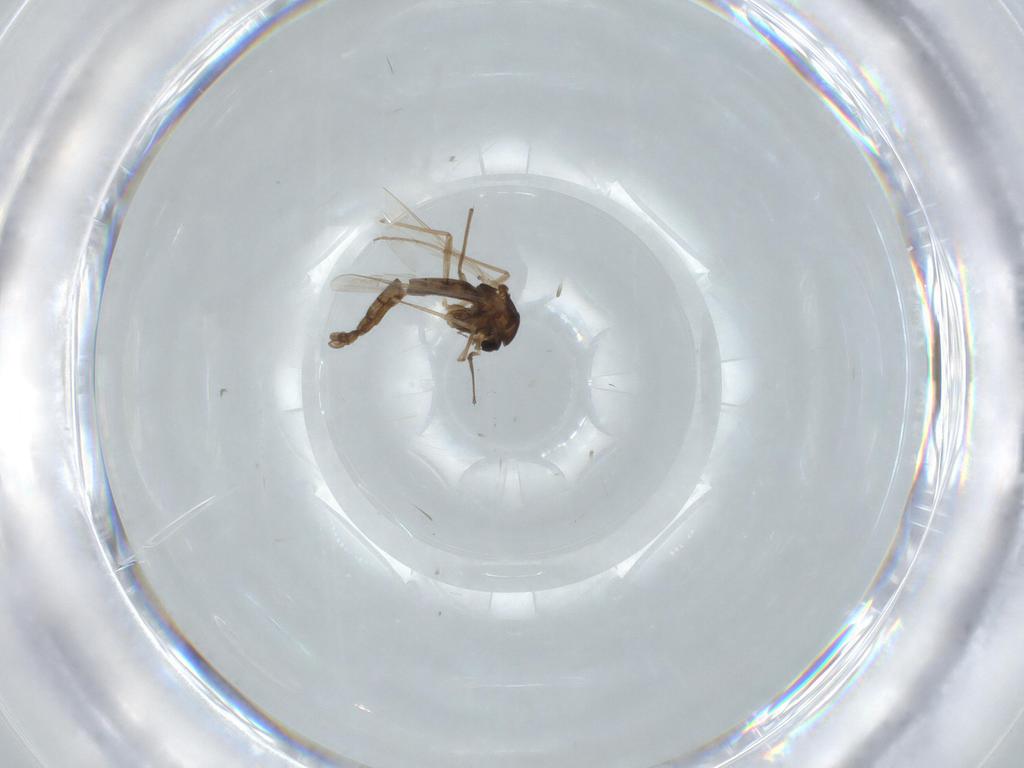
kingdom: Animalia
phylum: Arthropoda
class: Insecta
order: Diptera
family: Chironomidae
